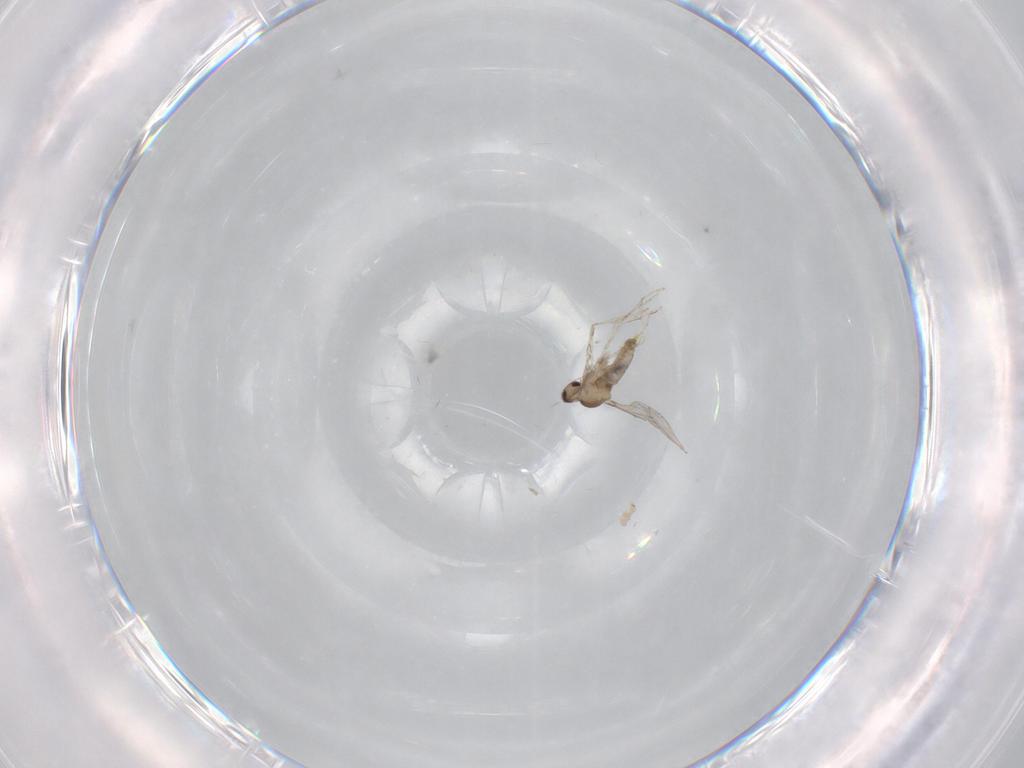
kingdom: Animalia
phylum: Arthropoda
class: Insecta
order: Diptera
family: Cecidomyiidae
